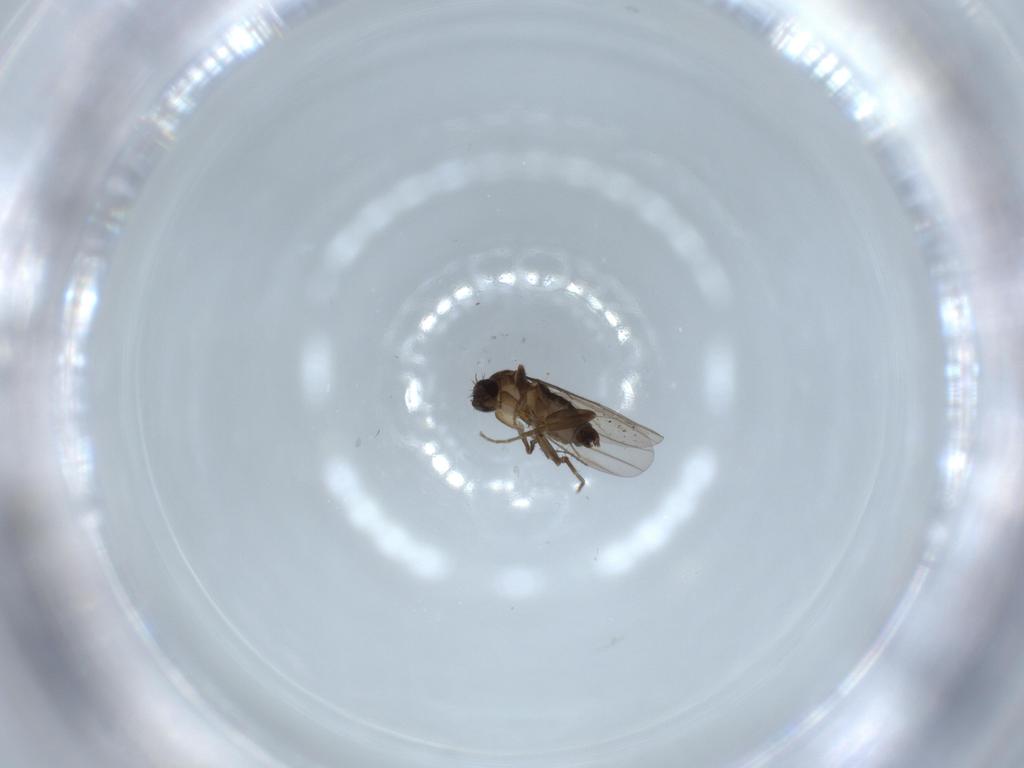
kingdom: Animalia
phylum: Arthropoda
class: Insecta
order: Diptera
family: Phoridae
